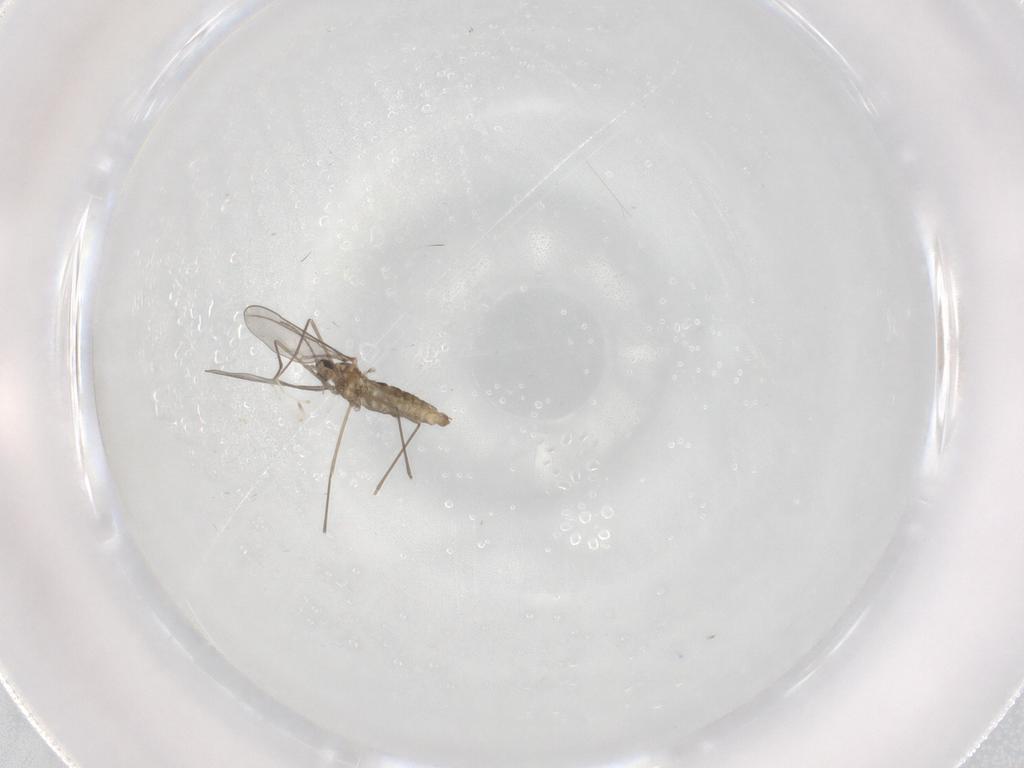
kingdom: Animalia
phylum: Arthropoda
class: Insecta
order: Diptera
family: Cecidomyiidae
